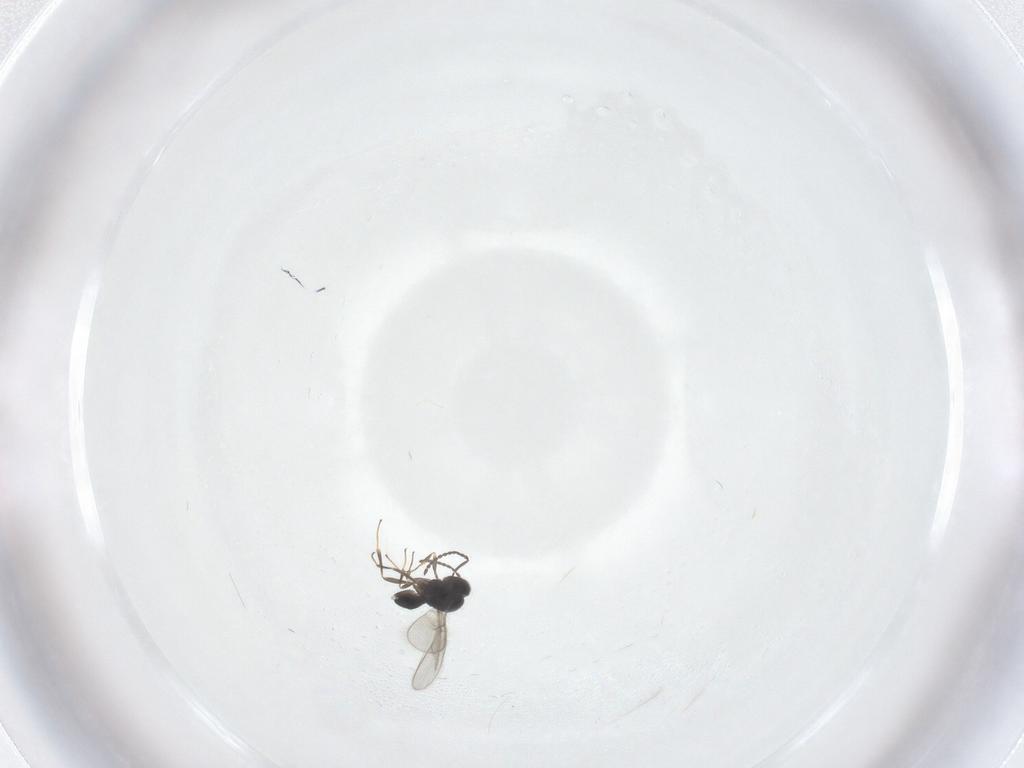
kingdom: Animalia
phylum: Arthropoda
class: Insecta
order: Hymenoptera
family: Scelionidae
